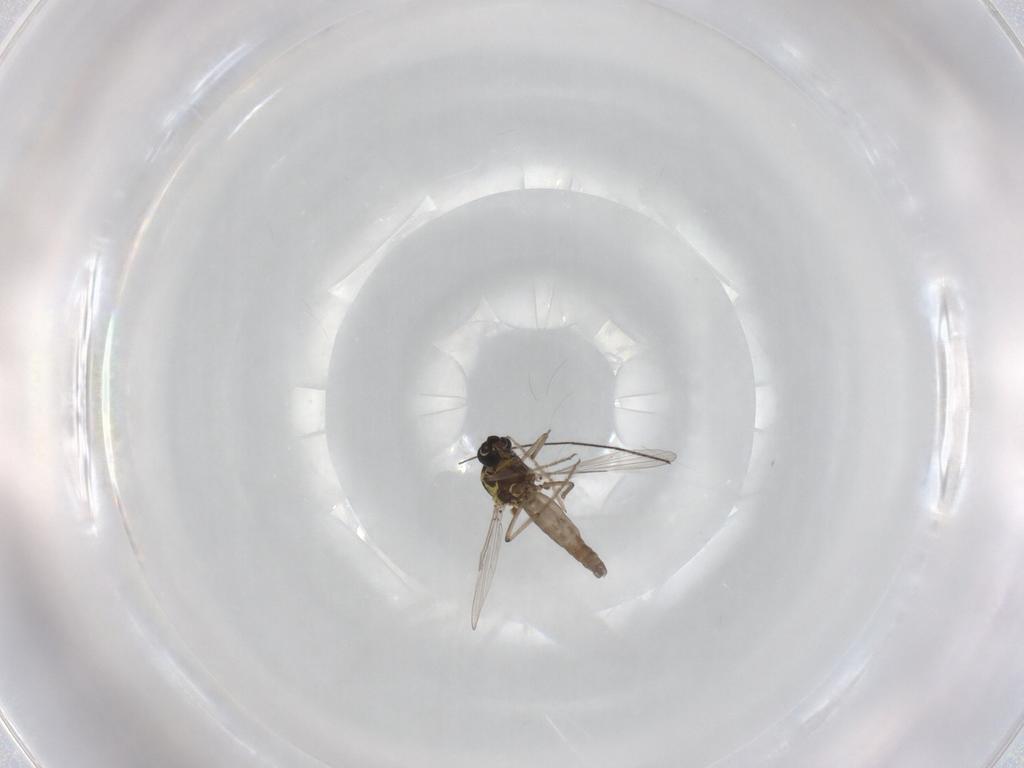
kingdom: Animalia
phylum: Arthropoda
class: Insecta
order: Diptera
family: Ceratopogonidae
